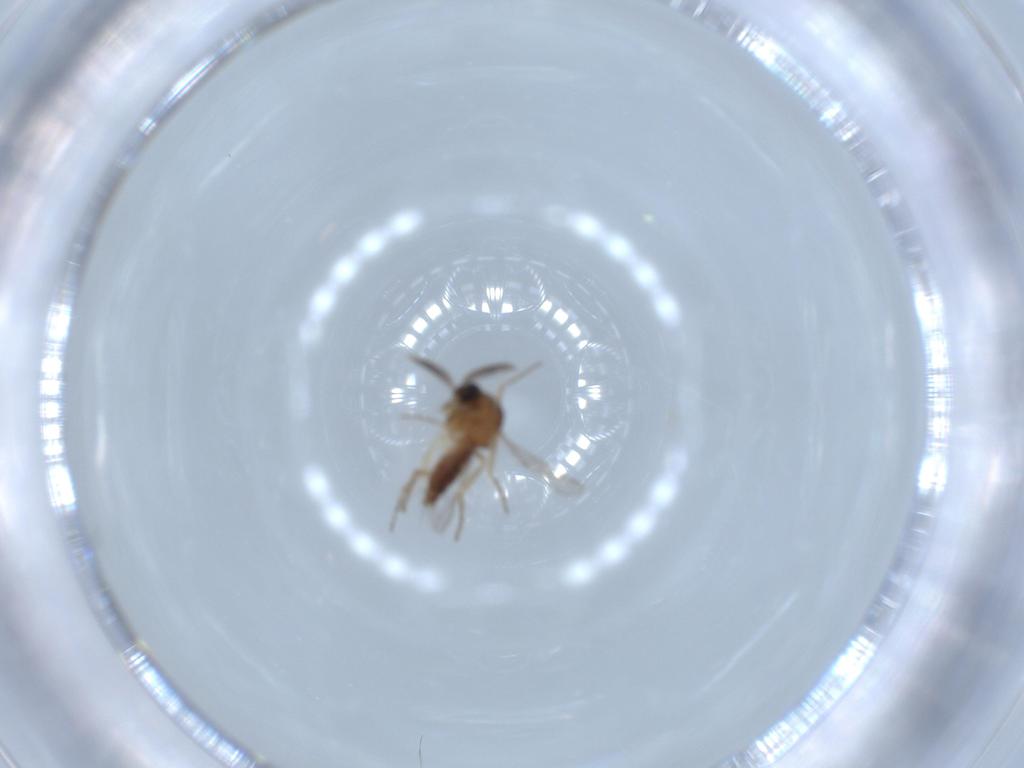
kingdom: Animalia
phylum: Arthropoda
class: Insecta
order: Diptera
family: Ceratopogonidae
